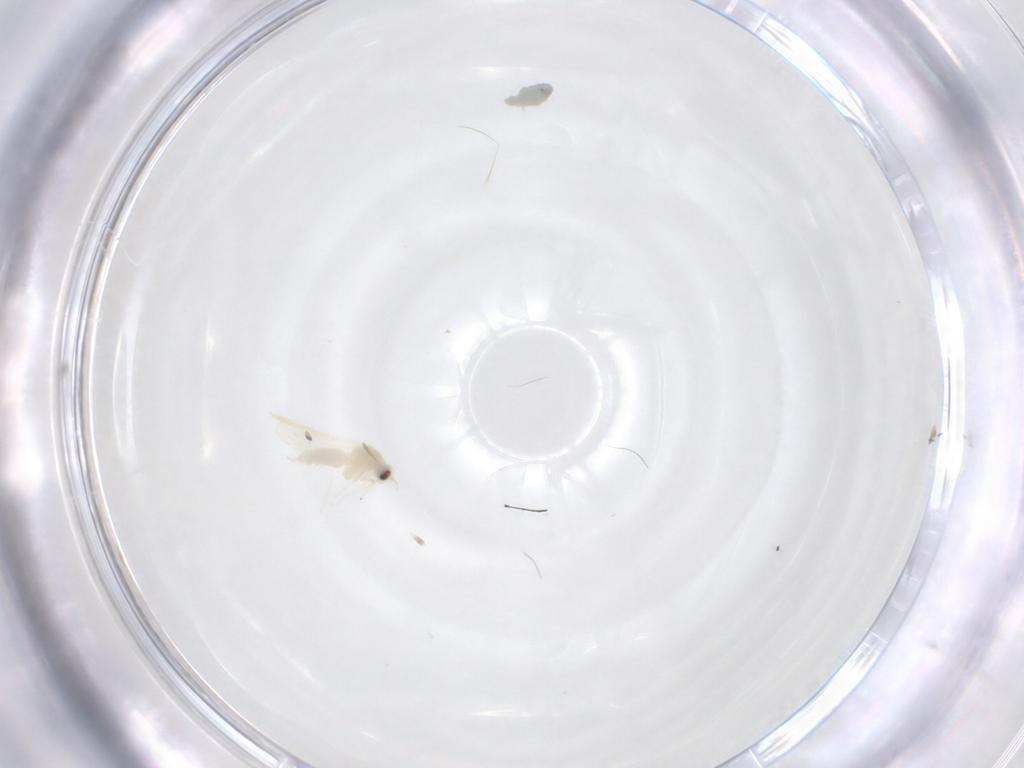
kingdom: Animalia
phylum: Arthropoda
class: Insecta
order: Hemiptera
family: Aleyrodidae
